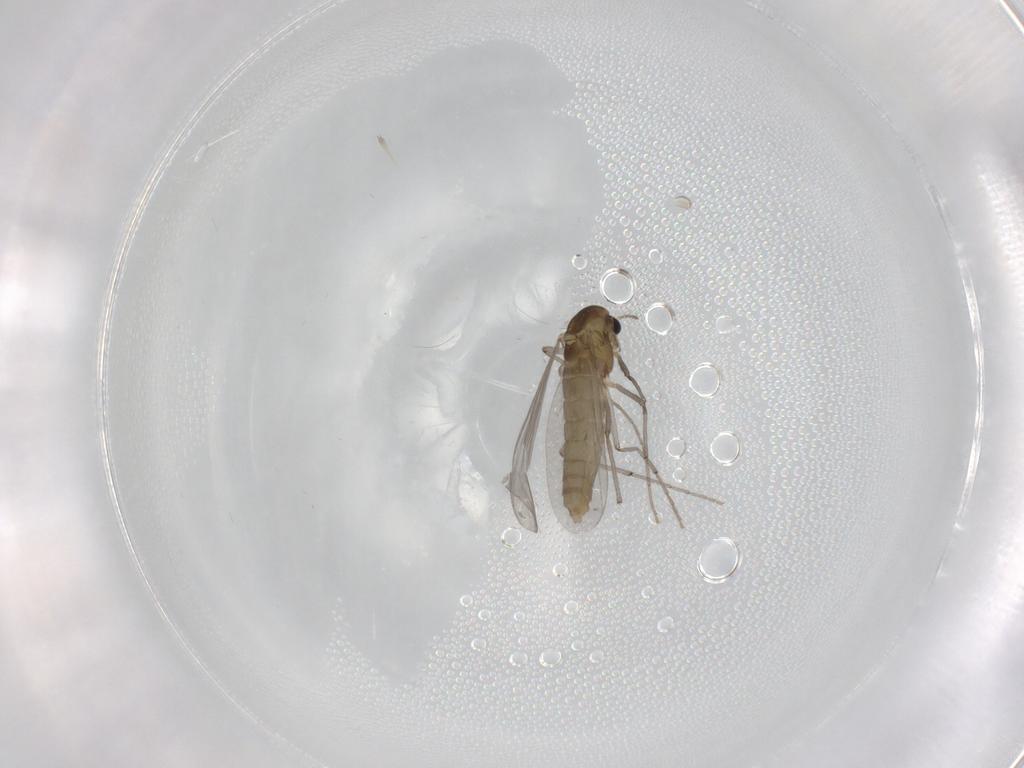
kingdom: Animalia
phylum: Arthropoda
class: Insecta
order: Diptera
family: Chironomidae
